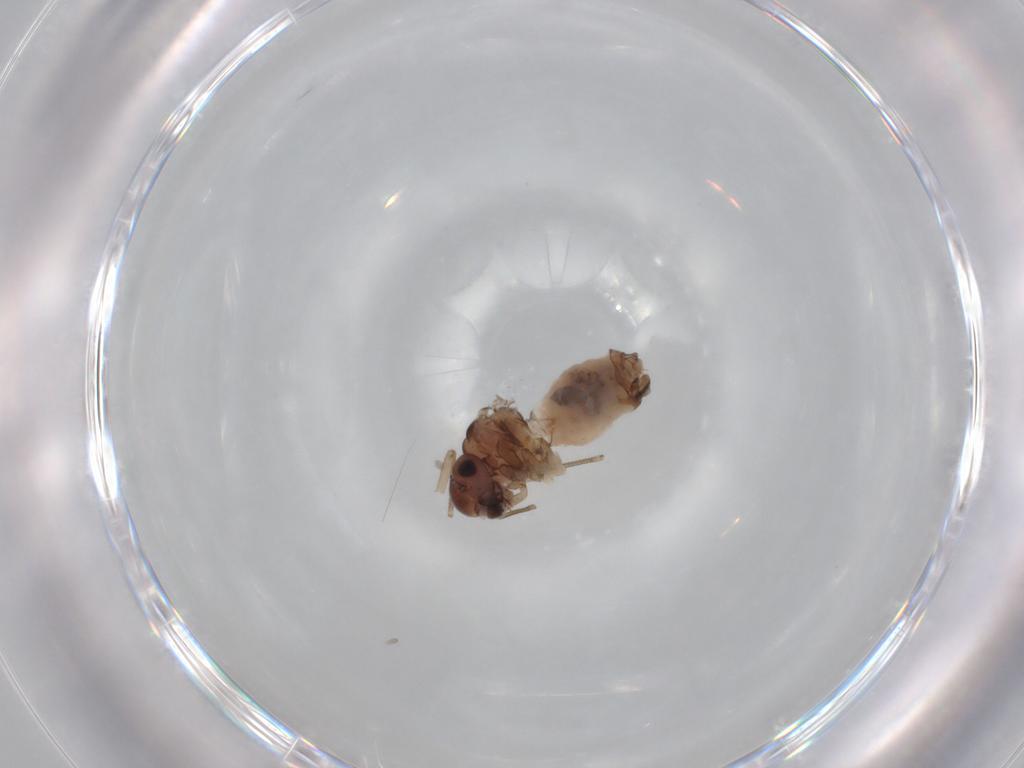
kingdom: Animalia
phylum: Arthropoda
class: Insecta
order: Psocodea
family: Peripsocidae
